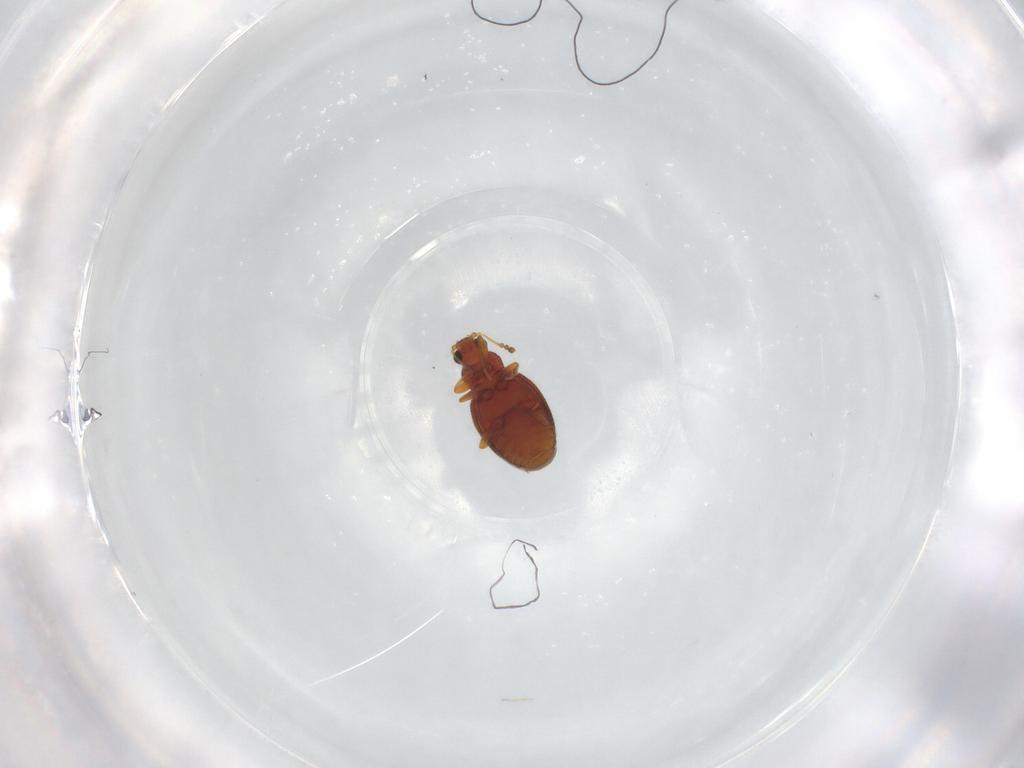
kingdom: Animalia
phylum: Arthropoda
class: Insecta
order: Coleoptera
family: Latridiidae
